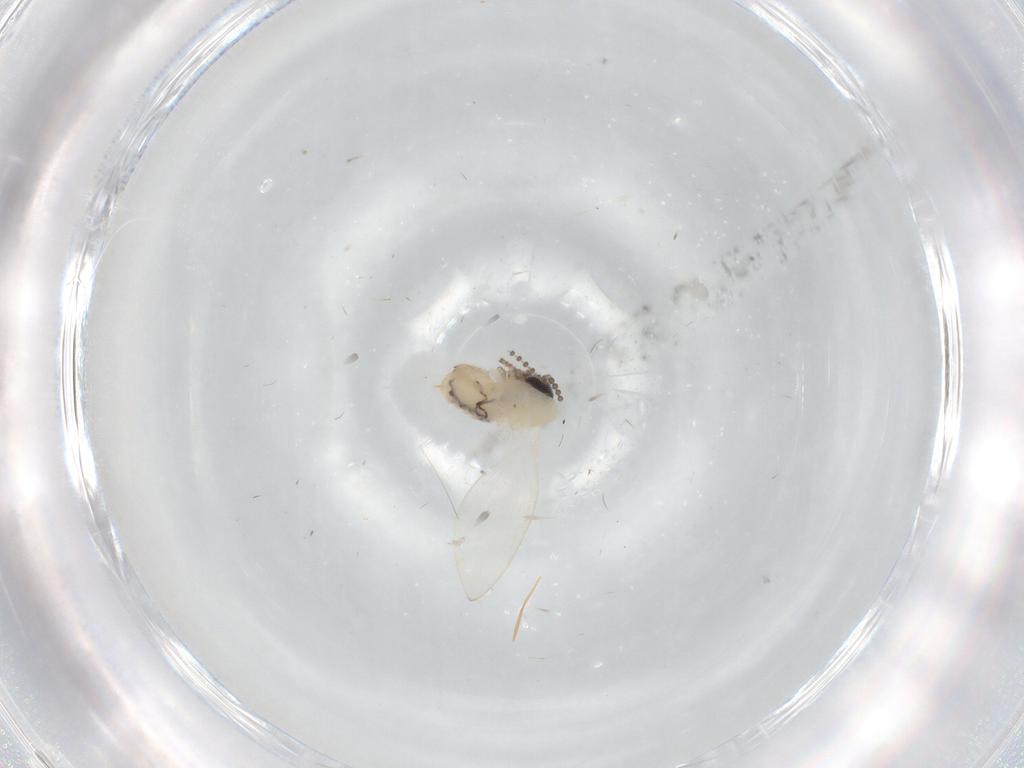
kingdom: Animalia
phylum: Arthropoda
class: Insecta
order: Diptera
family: Psychodidae
